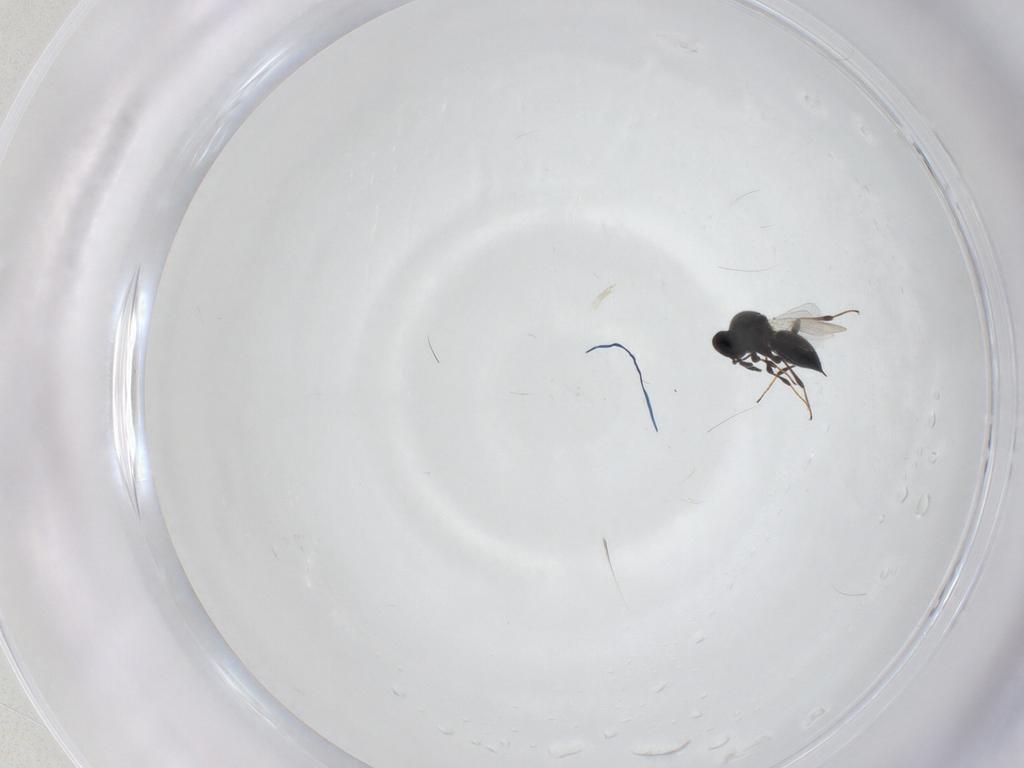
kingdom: Animalia
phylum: Arthropoda
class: Insecta
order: Hymenoptera
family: Platygastridae
